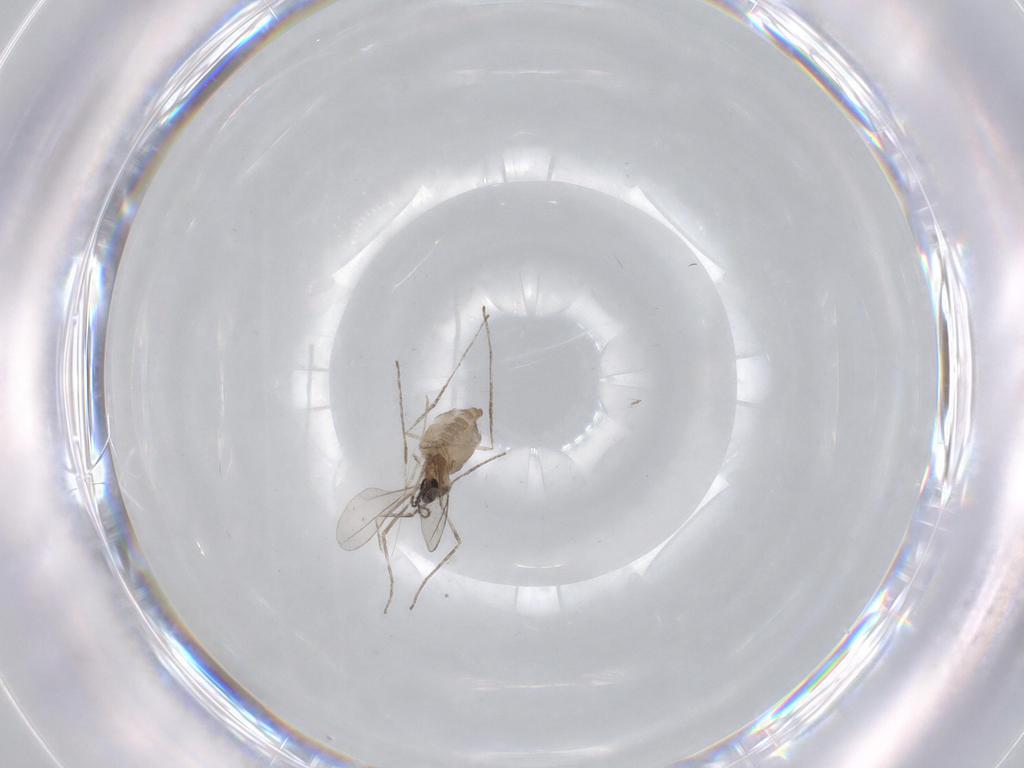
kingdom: Animalia
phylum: Arthropoda
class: Insecta
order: Diptera
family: Cecidomyiidae
